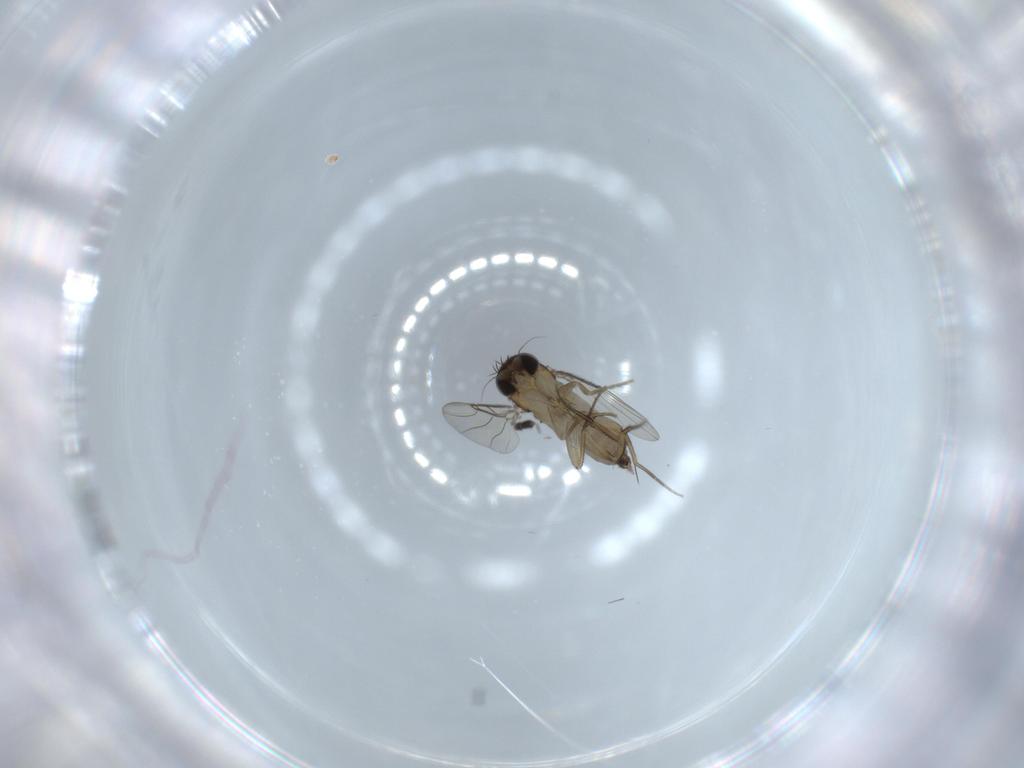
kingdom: Animalia
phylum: Arthropoda
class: Insecta
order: Diptera
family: Phoridae
